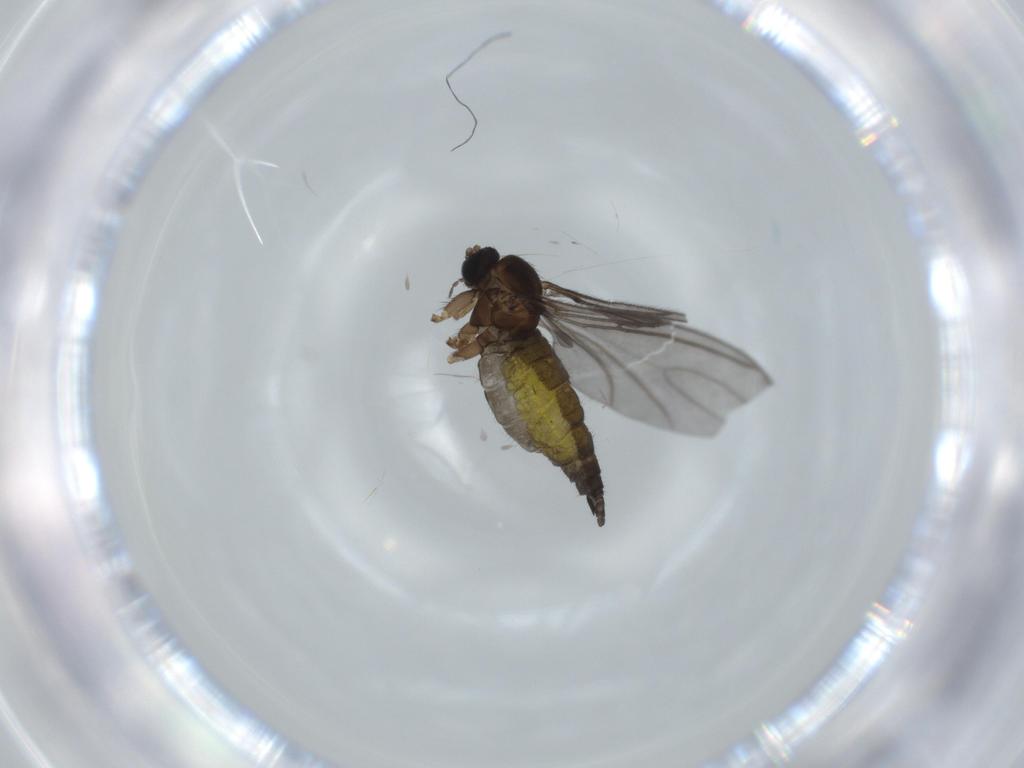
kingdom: Animalia
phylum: Arthropoda
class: Insecta
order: Diptera
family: Sciaridae
